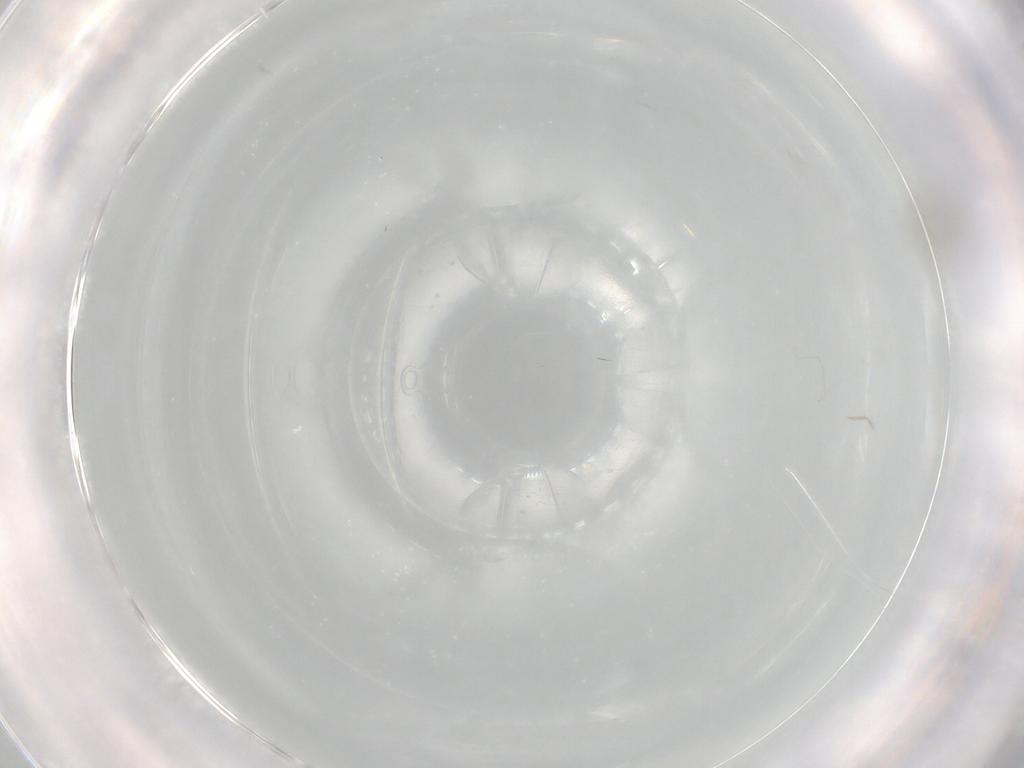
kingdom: Animalia
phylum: Arthropoda
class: Insecta
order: Diptera
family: Cecidomyiidae
